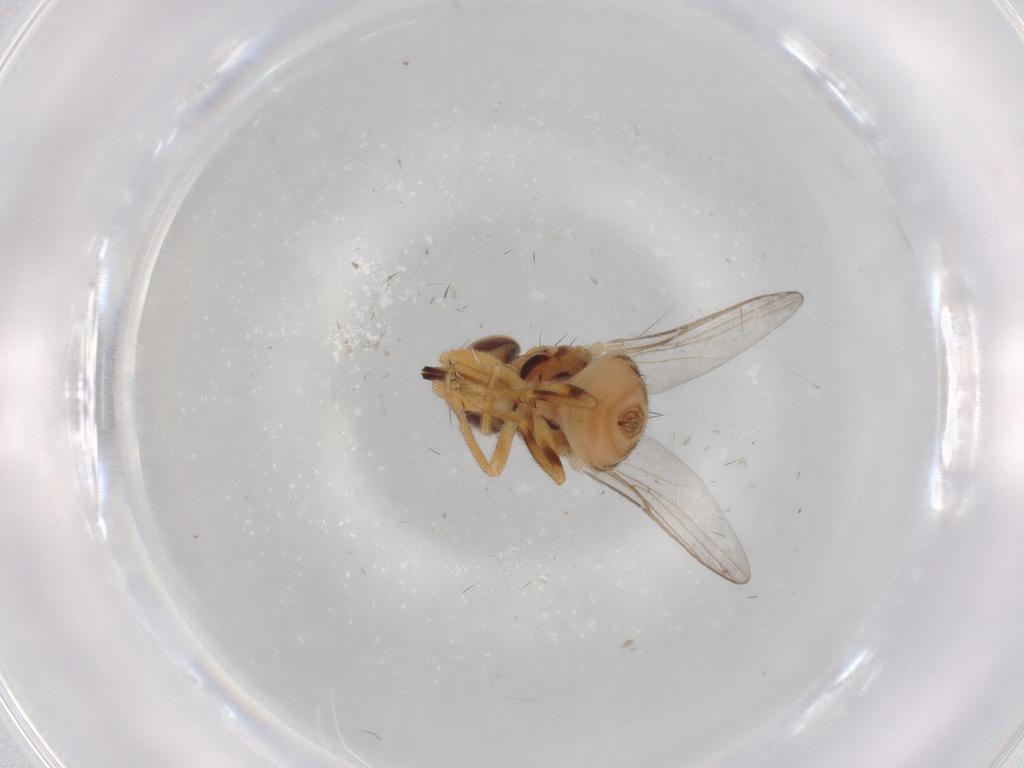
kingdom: Animalia
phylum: Arthropoda
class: Insecta
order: Diptera
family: Chloropidae
